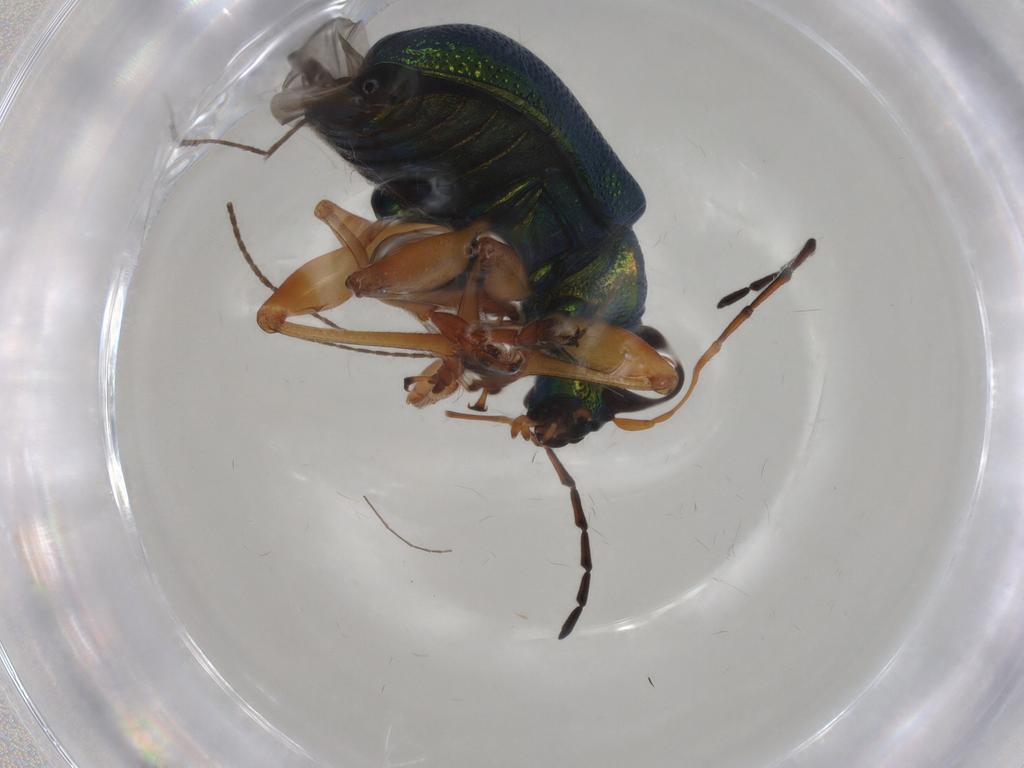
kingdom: Animalia
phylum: Arthropoda
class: Insecta
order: Coleoptera
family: Chrysomelidae
